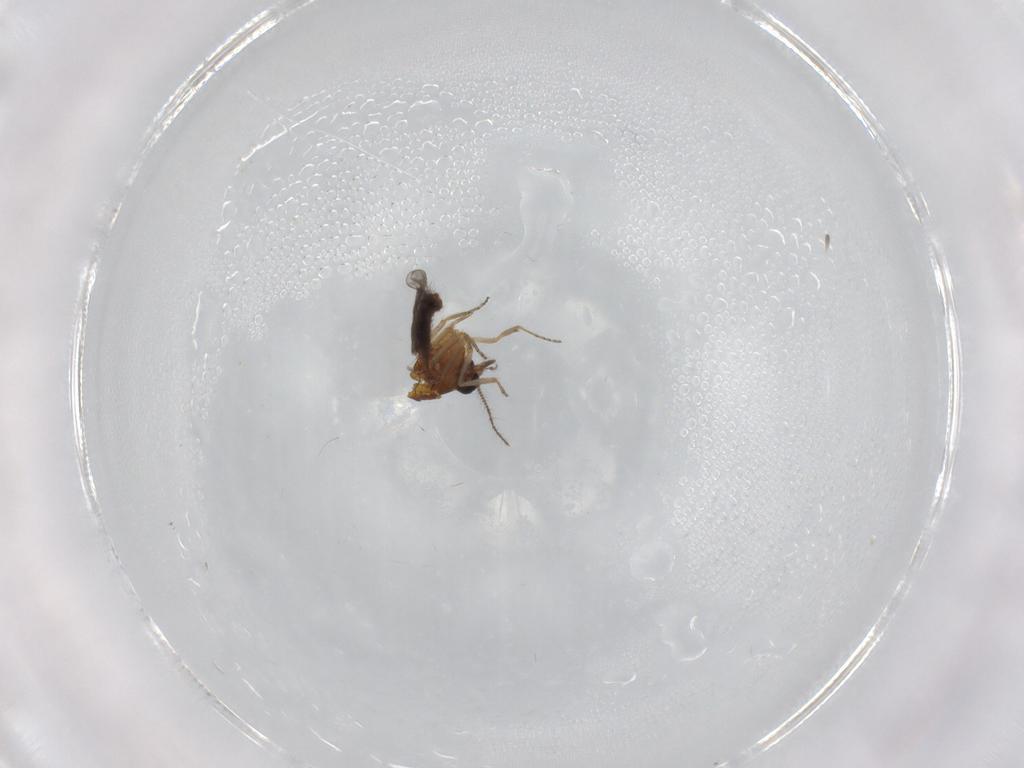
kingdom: Animalia
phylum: Arthropoda
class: Insecta
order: Diptera
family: Ceratopogonidae
